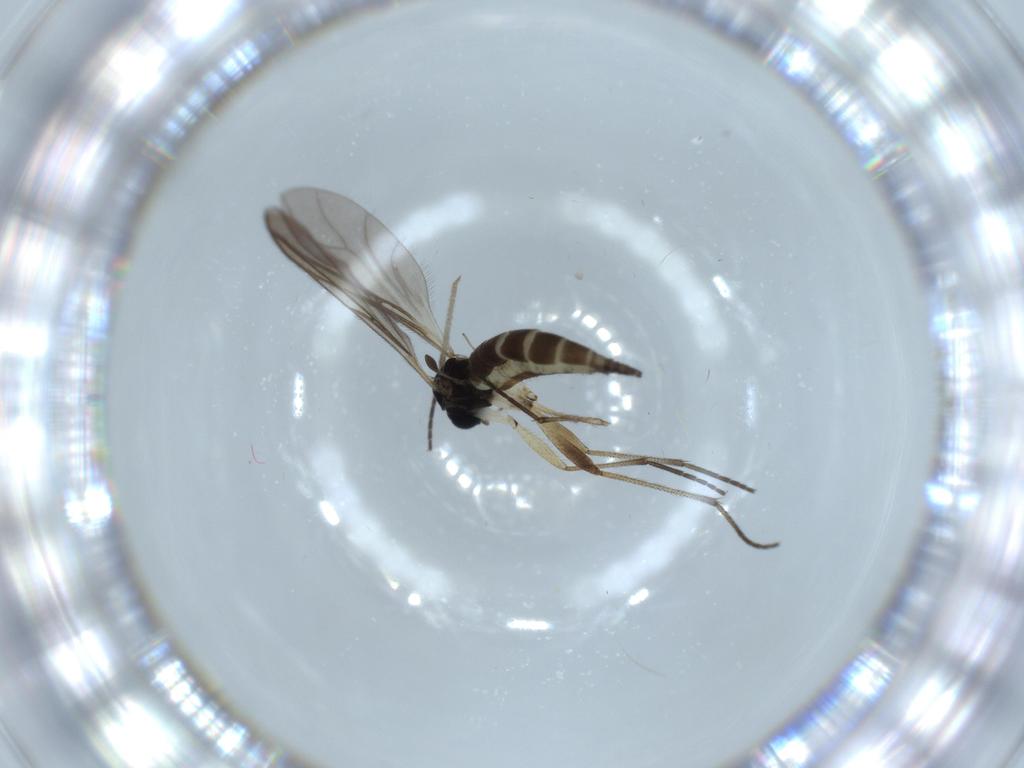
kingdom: Animalia
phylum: Arthropoda
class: Insecta
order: Diptera
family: Sciaridae
